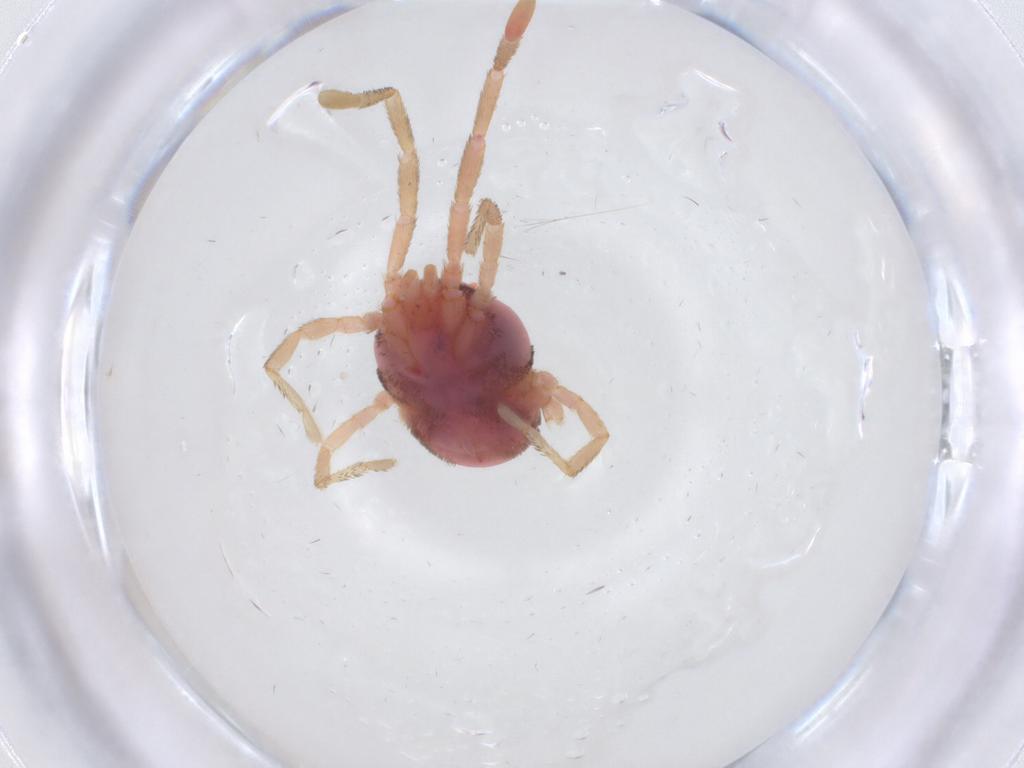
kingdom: Animalia
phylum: Arthropoda
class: Arachnida
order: Trombidiformes
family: Erythraeidae
